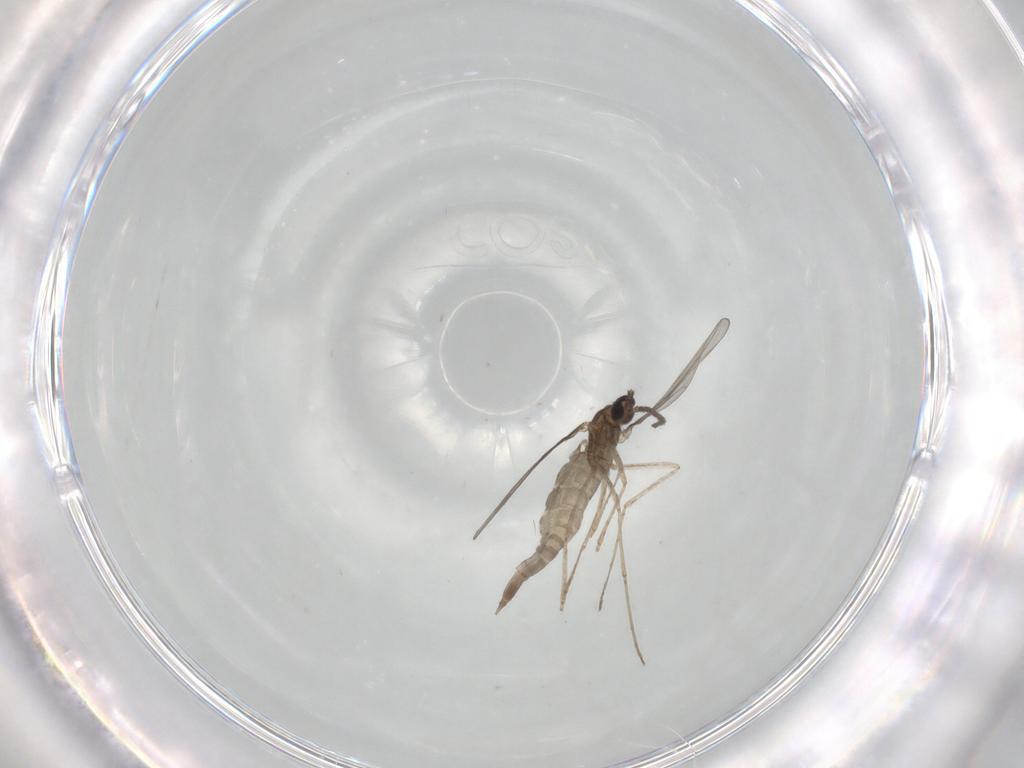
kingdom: Animalia
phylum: Arthropoda
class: Insecta
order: Diptera
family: Cecidomyiidae
